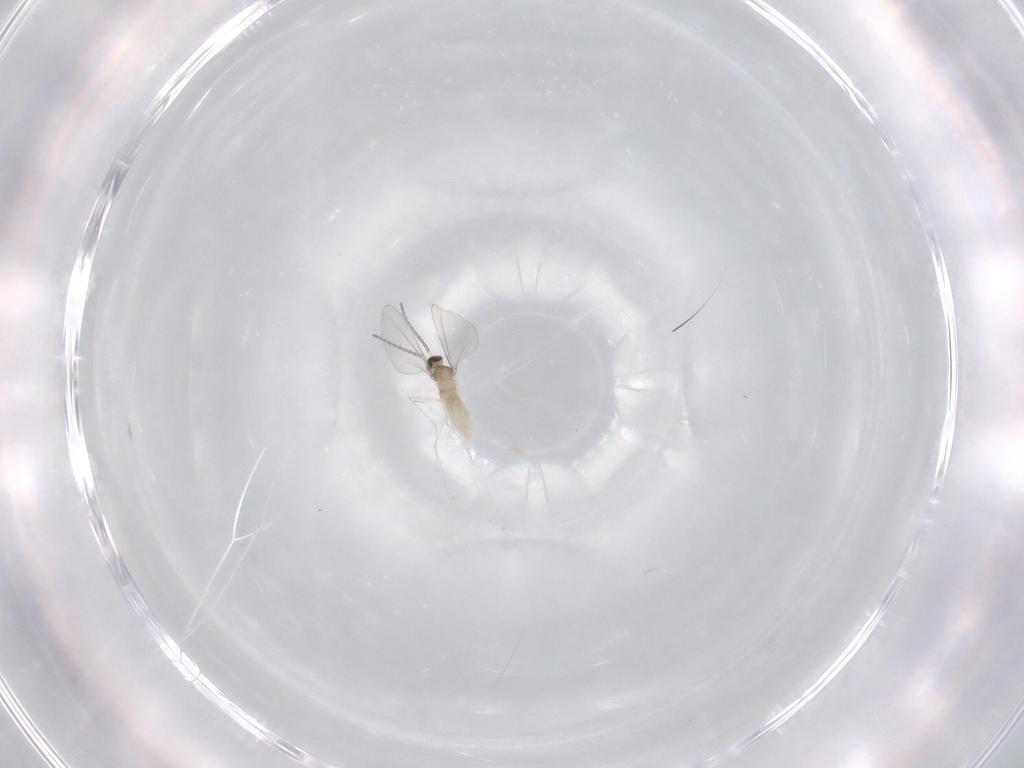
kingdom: Animalia
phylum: Arthropoda
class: Insecta
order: Diptera
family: Cecidomyiidae
